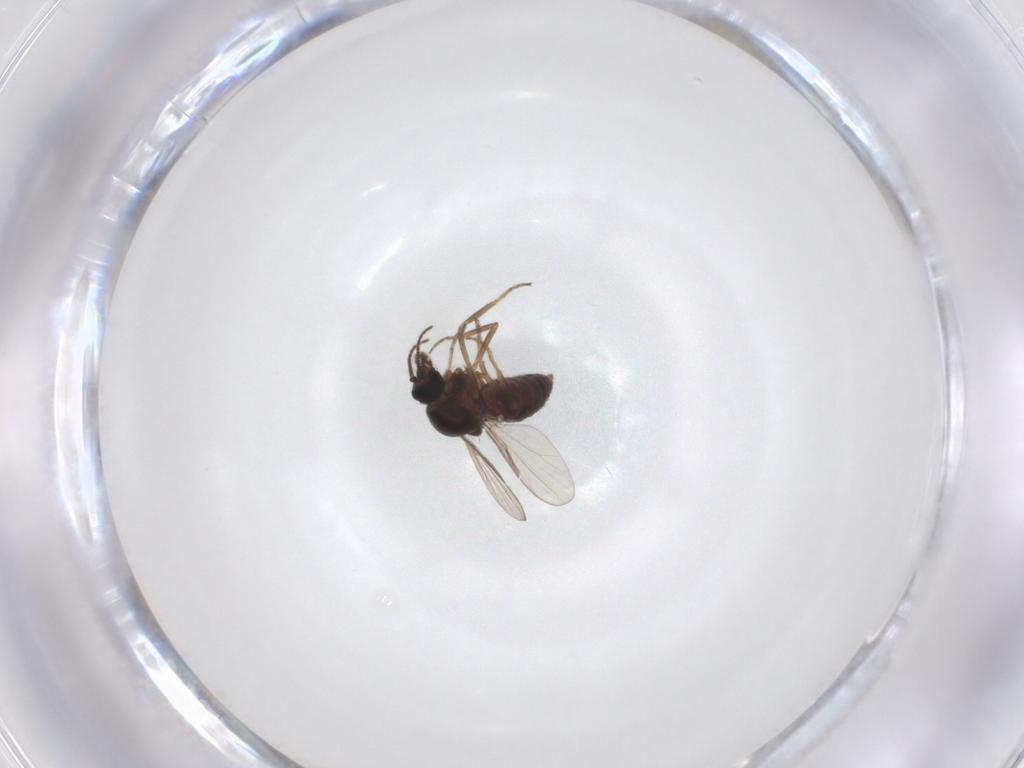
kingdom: Animalia
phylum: Arthropoda
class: Insecta
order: Diptera
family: Ceratopogonidae
